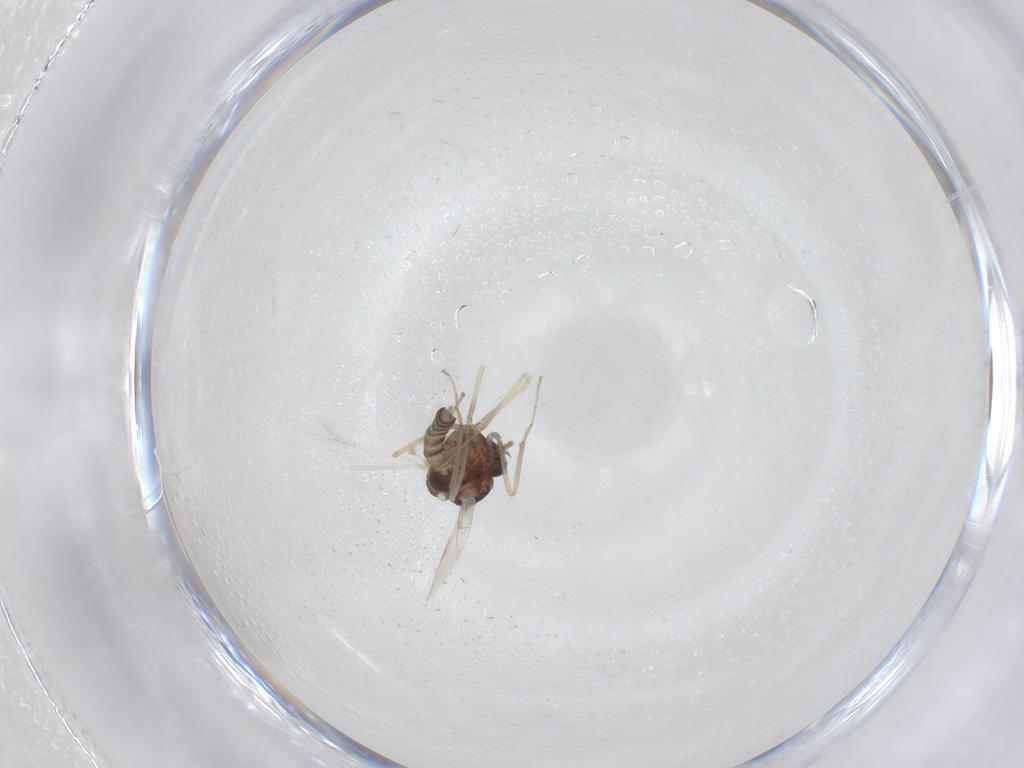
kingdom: Animalia
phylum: Arthropoda
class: Insecta
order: Diptera
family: Ceratopogonidae
